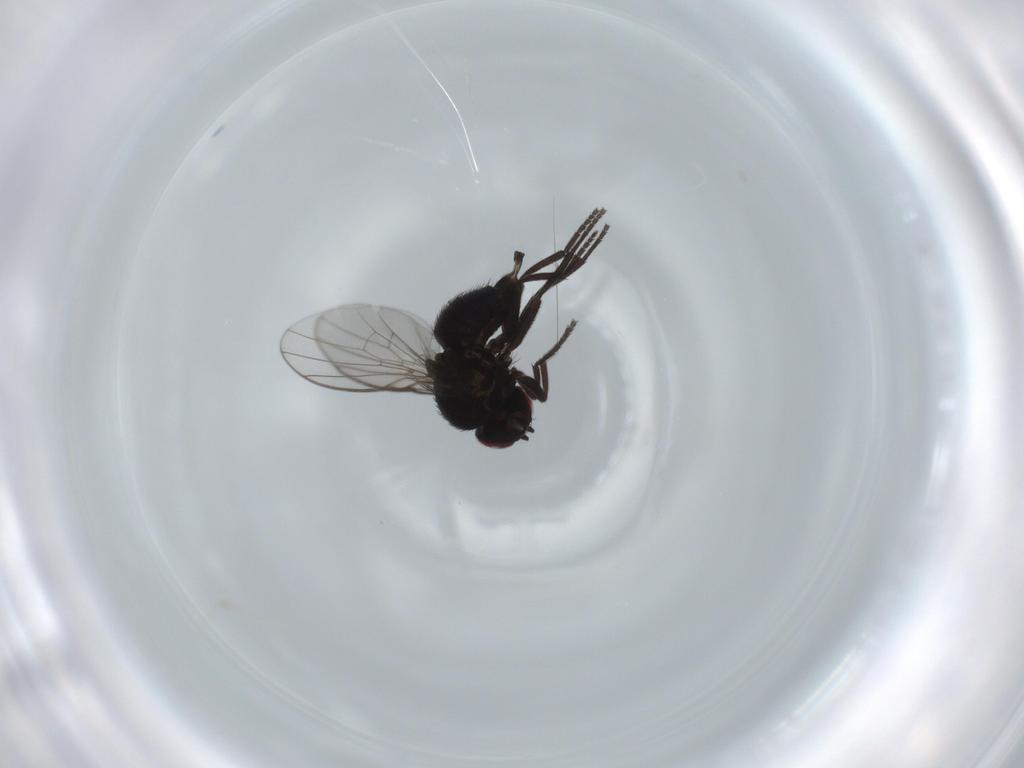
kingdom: Animalia
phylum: Arthropoda
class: Insecta
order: Diptera
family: Agromyzidae
